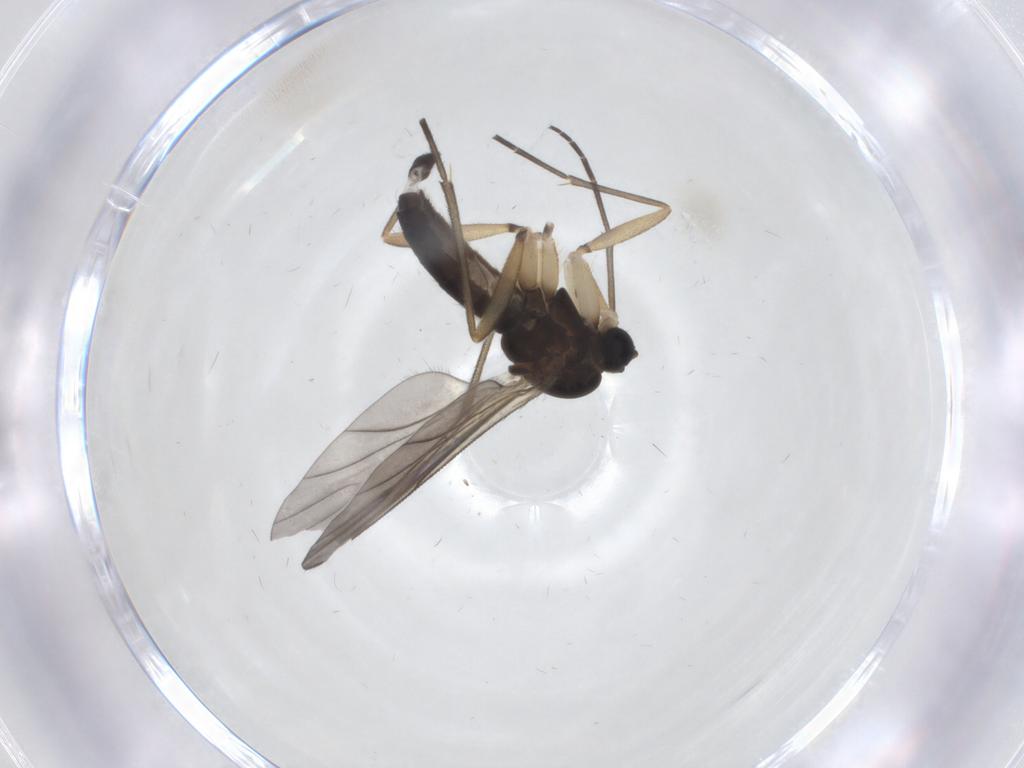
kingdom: Animalia
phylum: Arthropoda
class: Insecta
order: Diptera
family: Sciaridae
